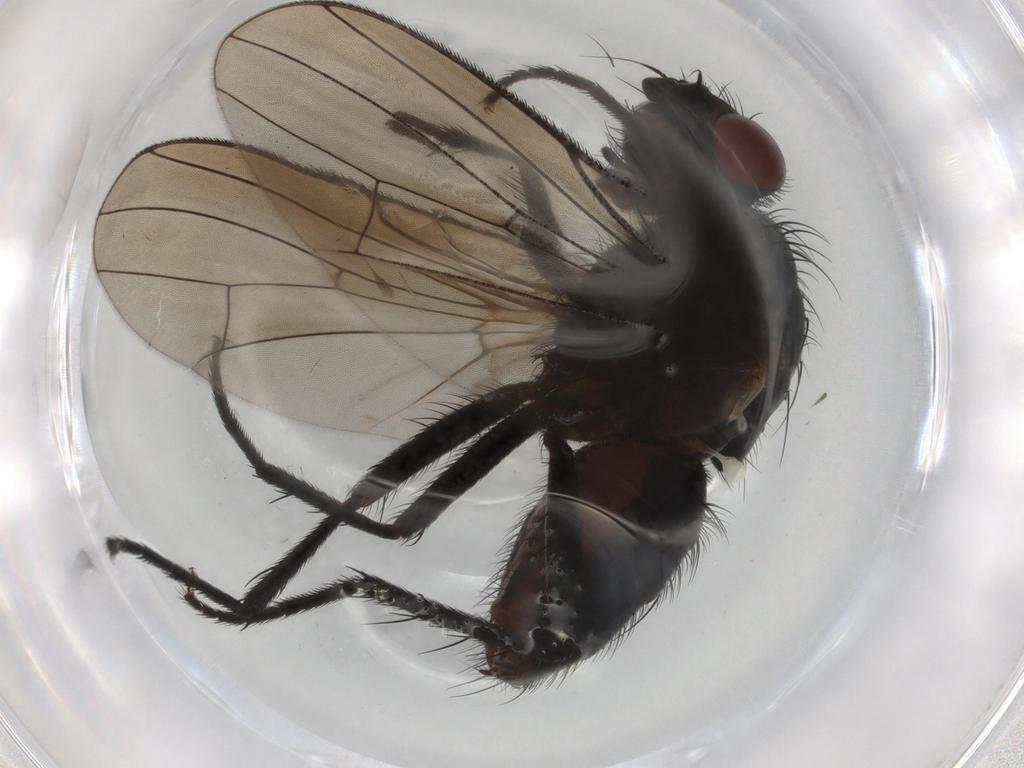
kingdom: Animalia
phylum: Arthropoda
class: Insecta
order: Diptera
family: Anthomyiidae
